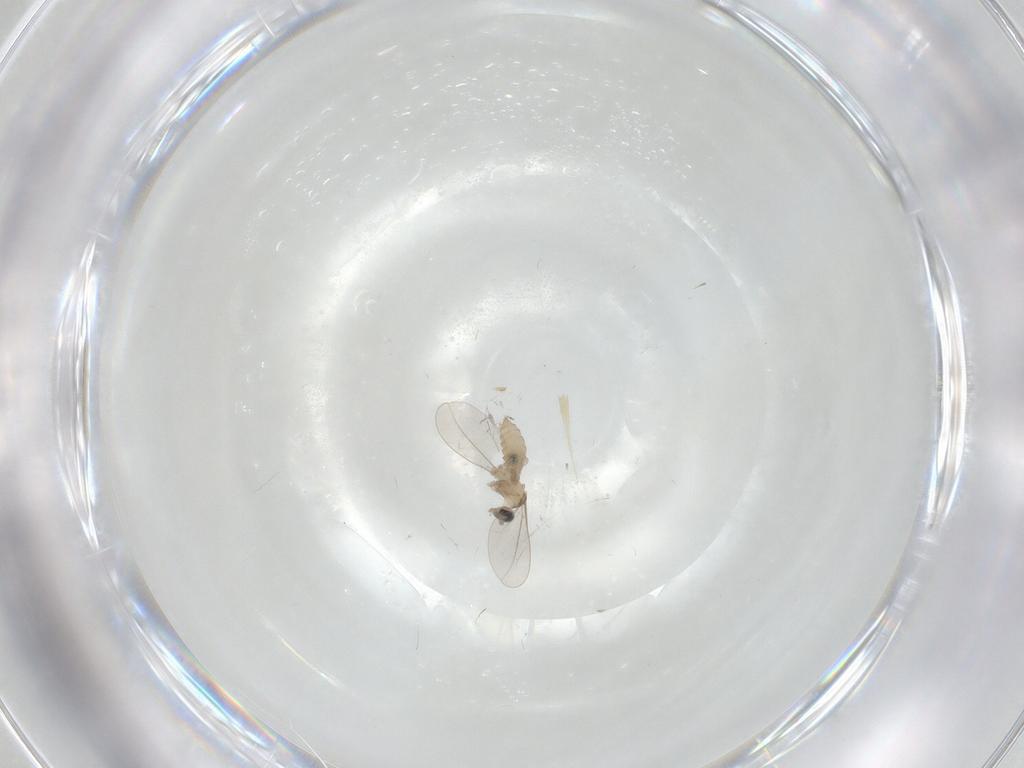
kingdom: Animalia
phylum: Arthropoda
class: Insecta
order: Diptera
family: Cecidomyiidae
